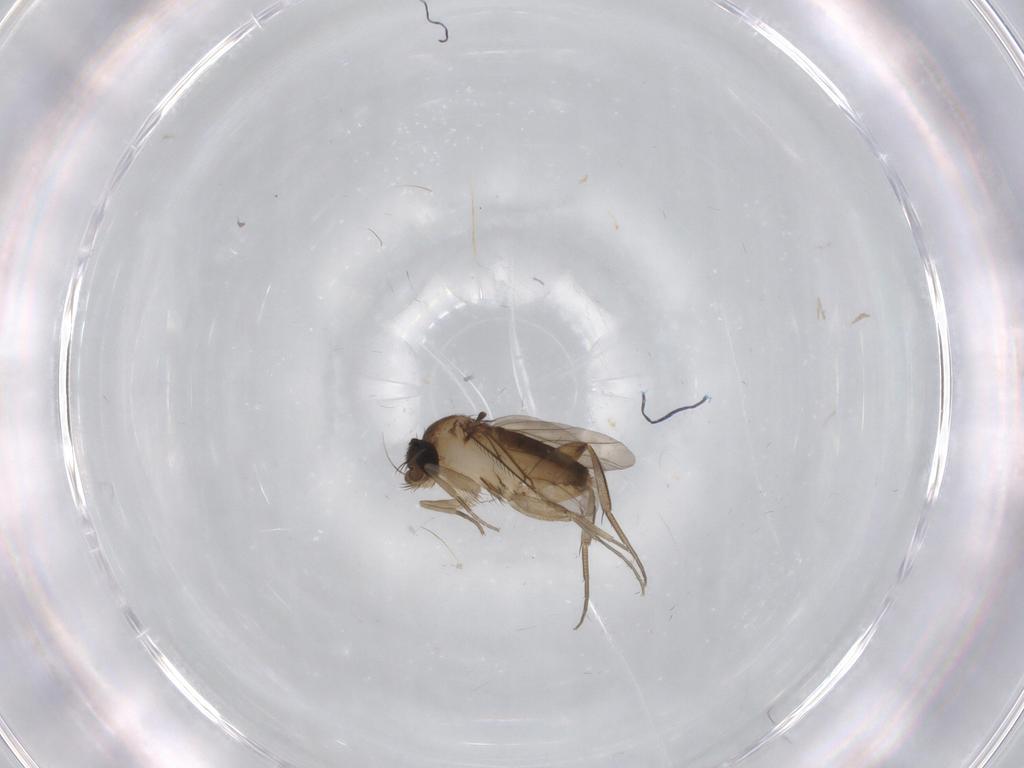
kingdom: Animalia
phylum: Arthropoda
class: Insecta
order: Diptera
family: Phoridae
